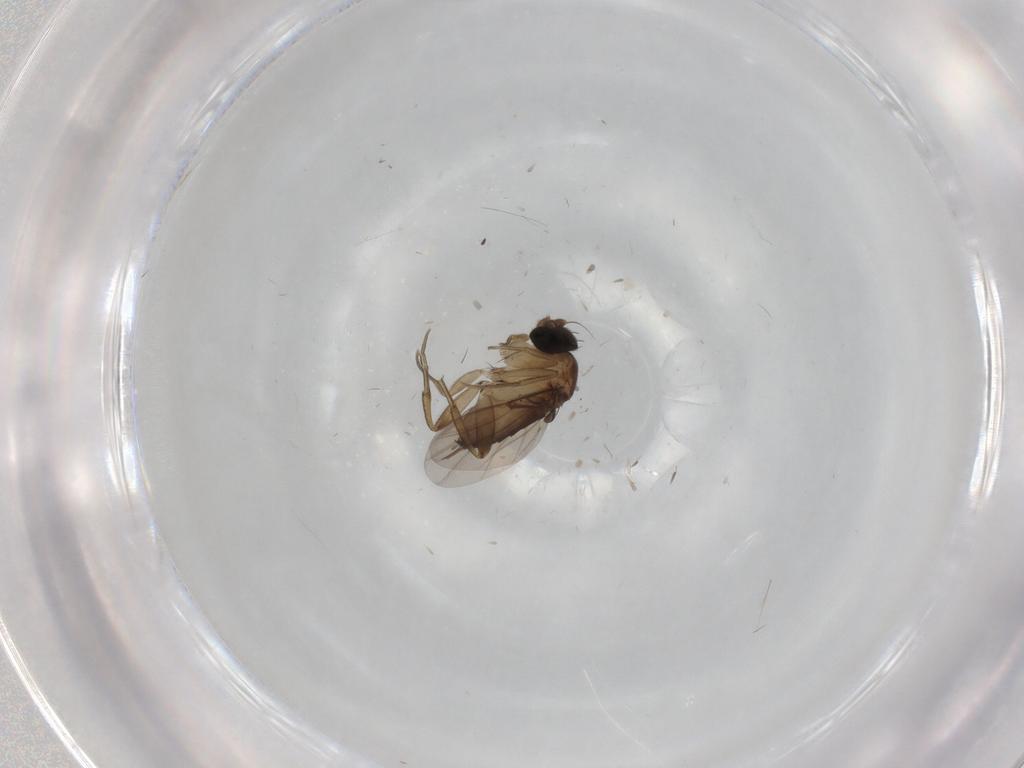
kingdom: Animalia
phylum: Arthropoda
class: Insecta
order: Diptera
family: Phoridae
